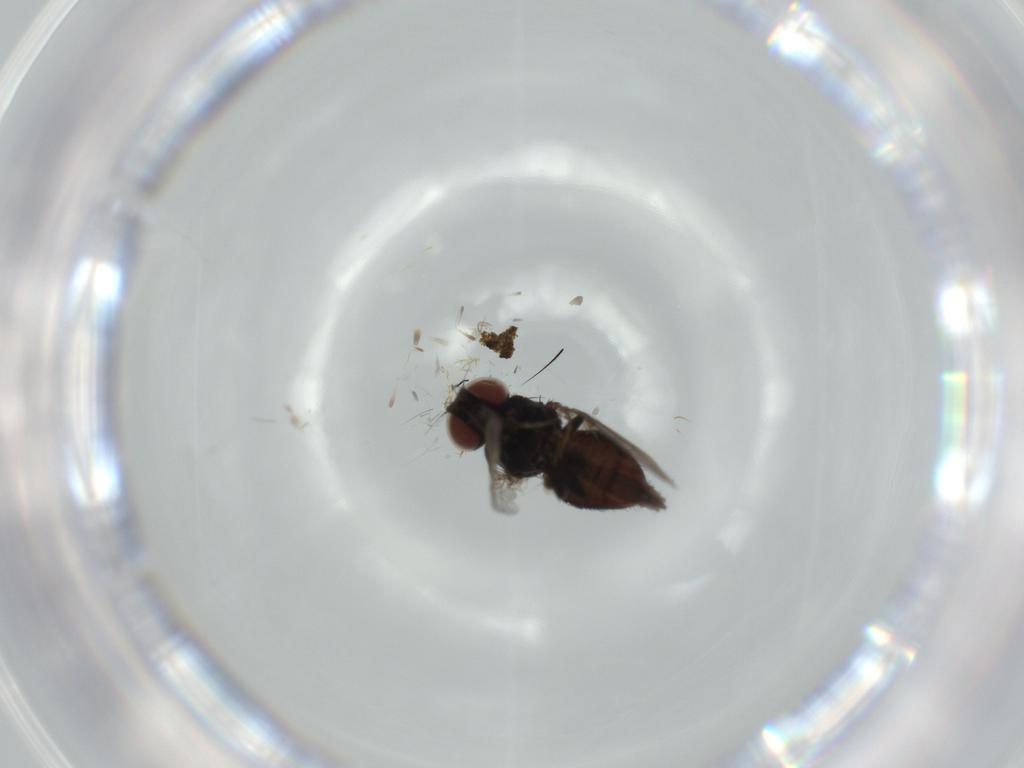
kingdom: Animalia
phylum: Arthropoda
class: Insecta
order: Diptera
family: Milichiidae
